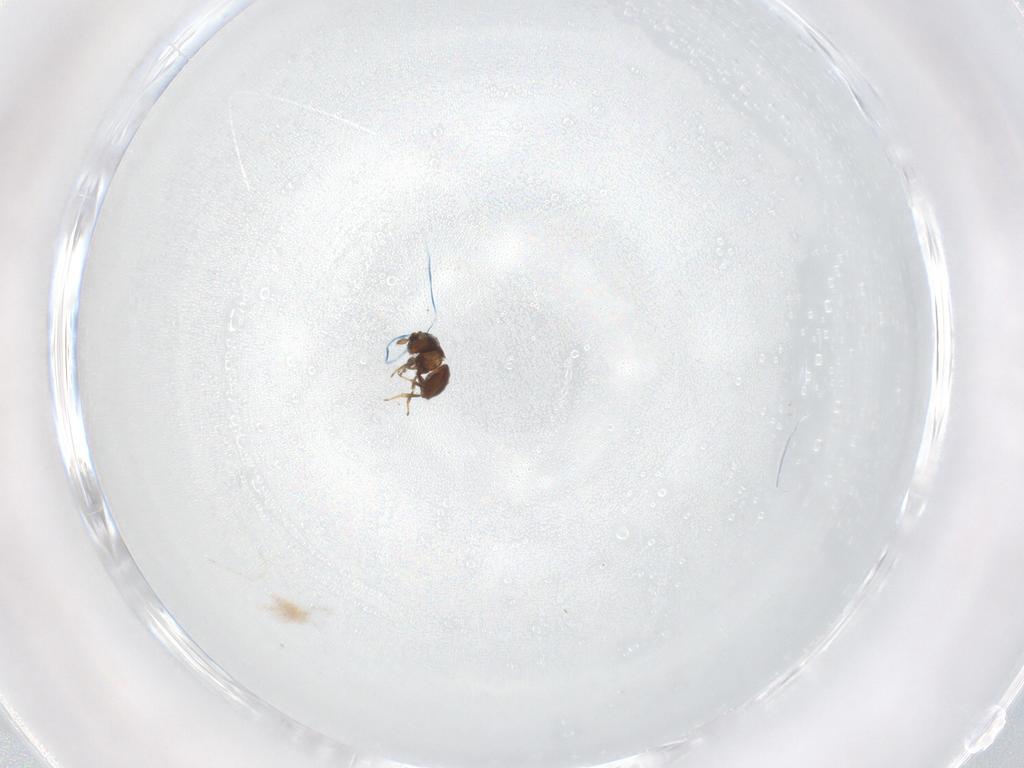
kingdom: Animalia
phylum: Arthropoda
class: Insecta
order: Hymenoptera
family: Scelionidae
